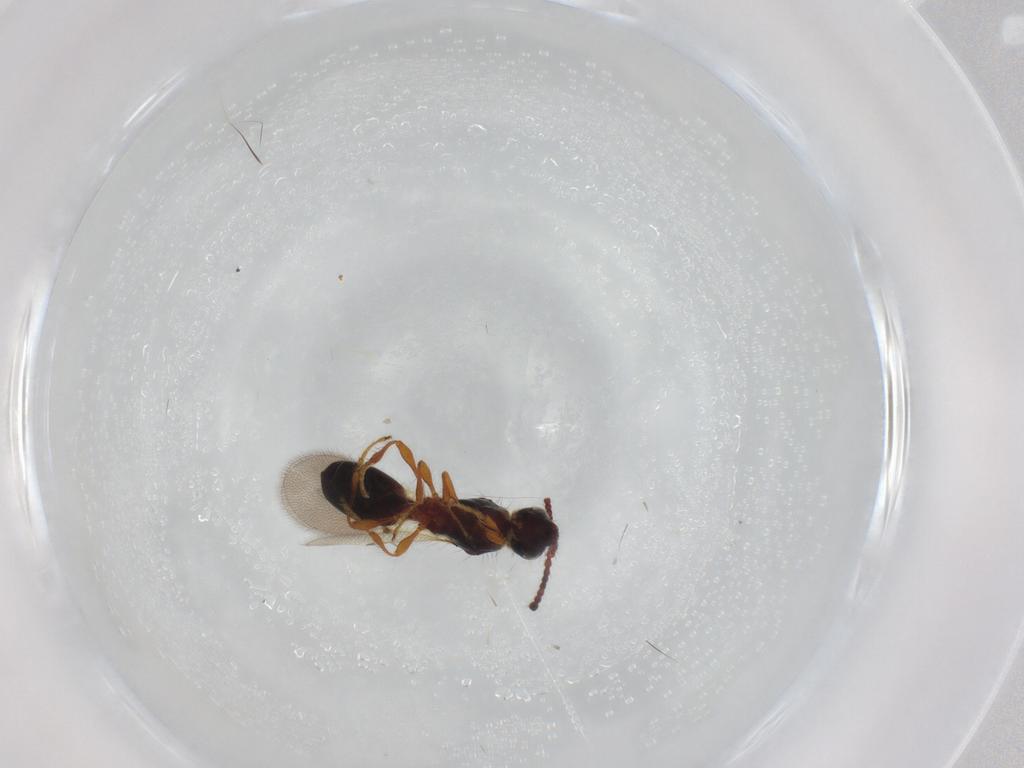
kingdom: Animalia
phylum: Arthropoda
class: Insecta
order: Hymenoptera
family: Diapriidae
